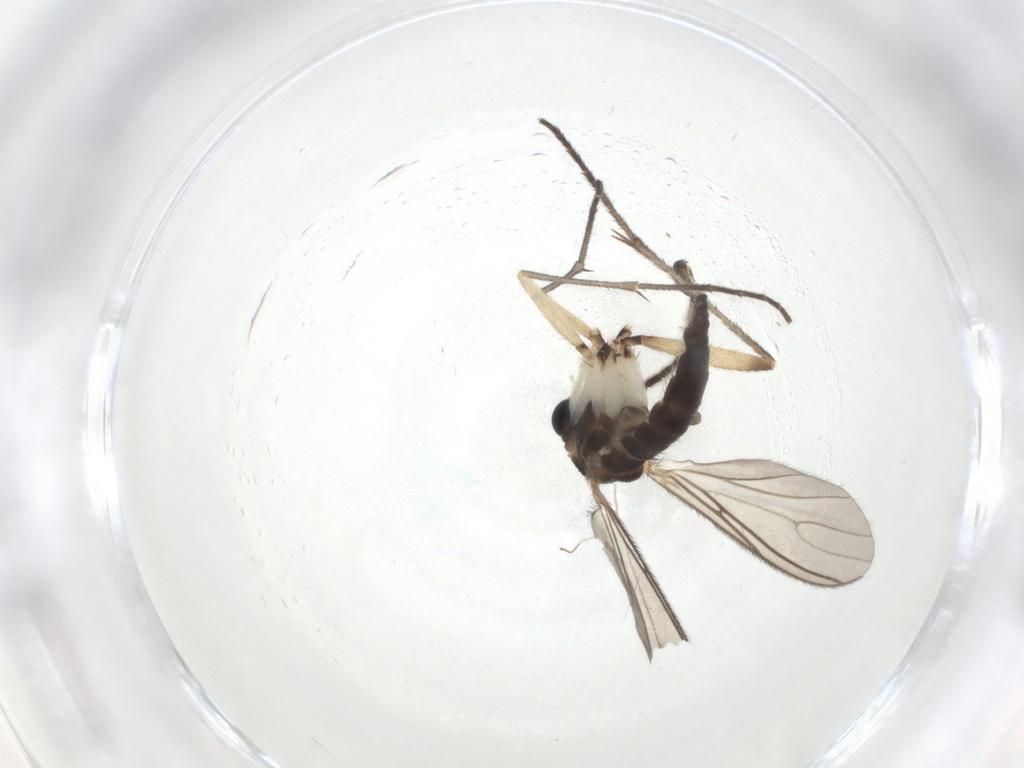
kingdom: Animalia
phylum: Arthropoda
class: Insecta
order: Diptera
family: Sciaridae
